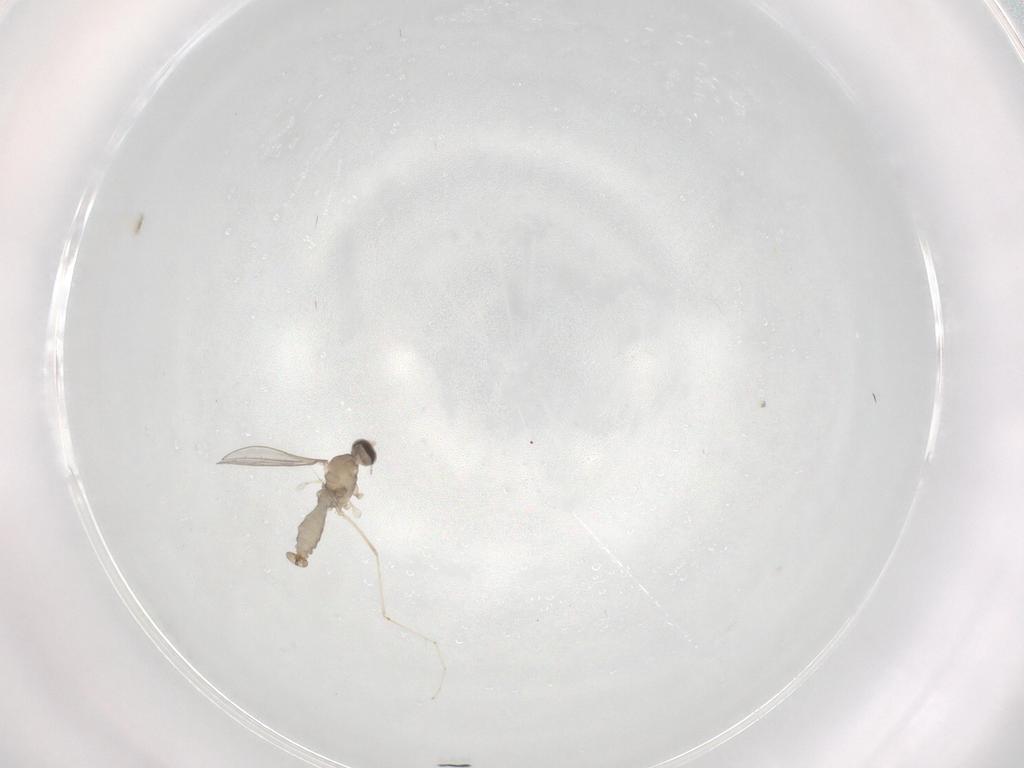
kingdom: Animalia
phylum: Arthropoda
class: Insecta
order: Diptera
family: Cecidomyiidae
